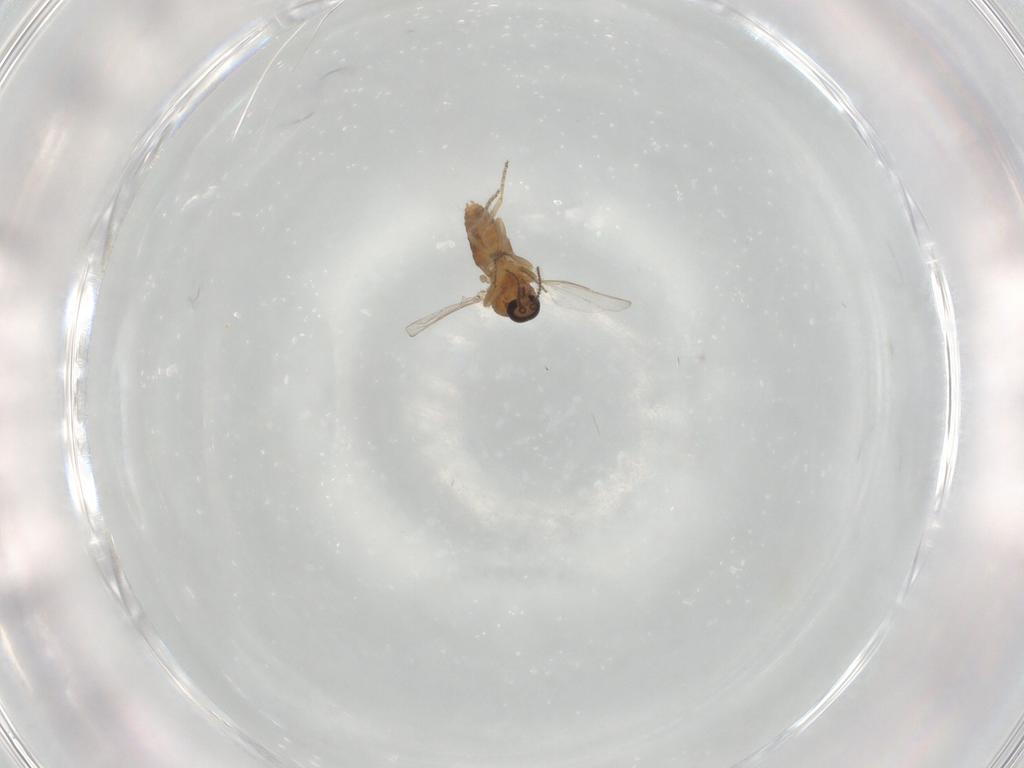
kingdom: Animalia
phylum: Arthropoda
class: Insecta
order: Diptera
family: Ceratopogonidae
